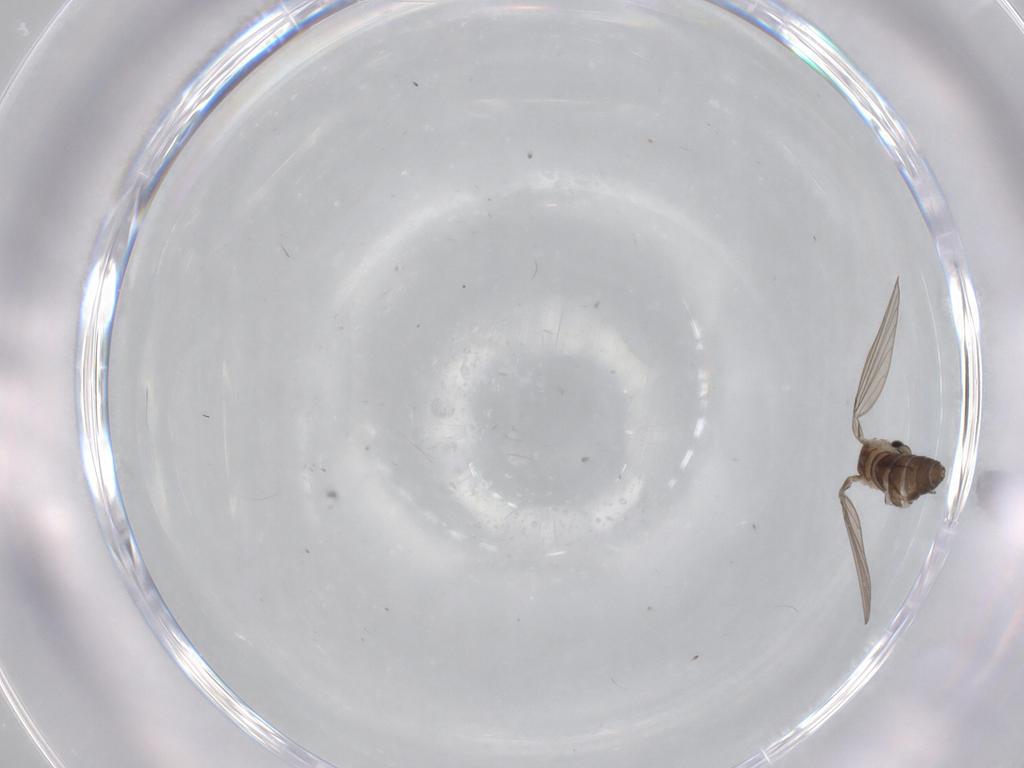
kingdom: Animalia
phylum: Arthropoda
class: Insecta
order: Diptera
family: Psychodidae
